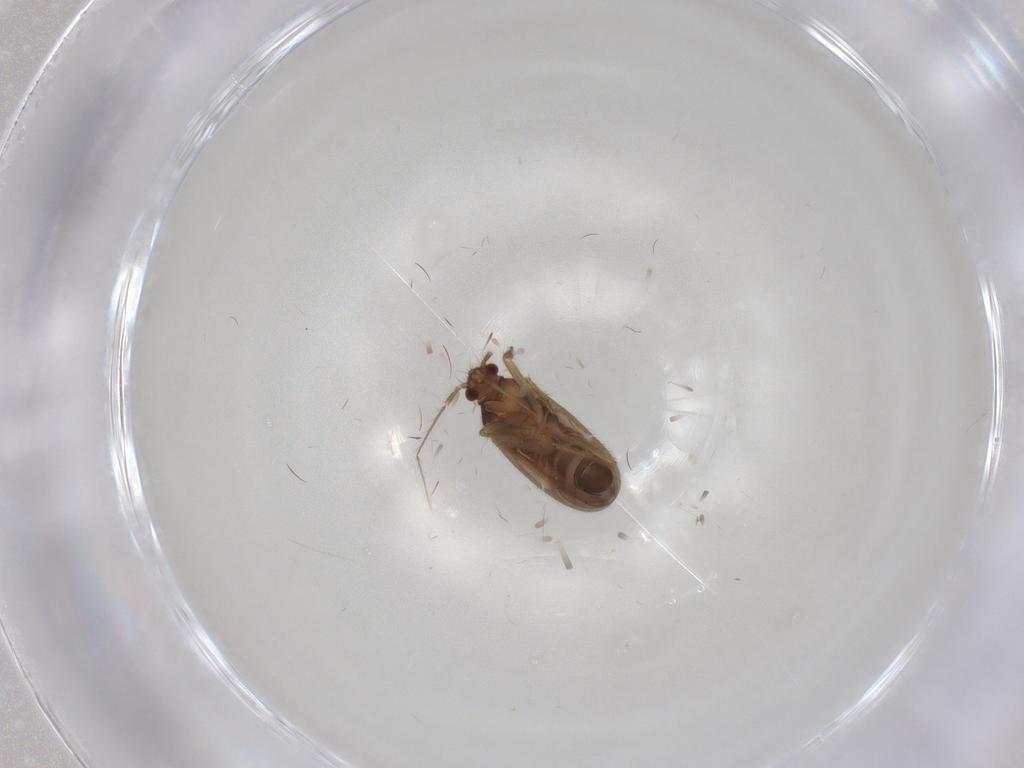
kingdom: Animalia
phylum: Arthropoda
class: Insecta
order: Hemiptera
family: Ceratocombidae
